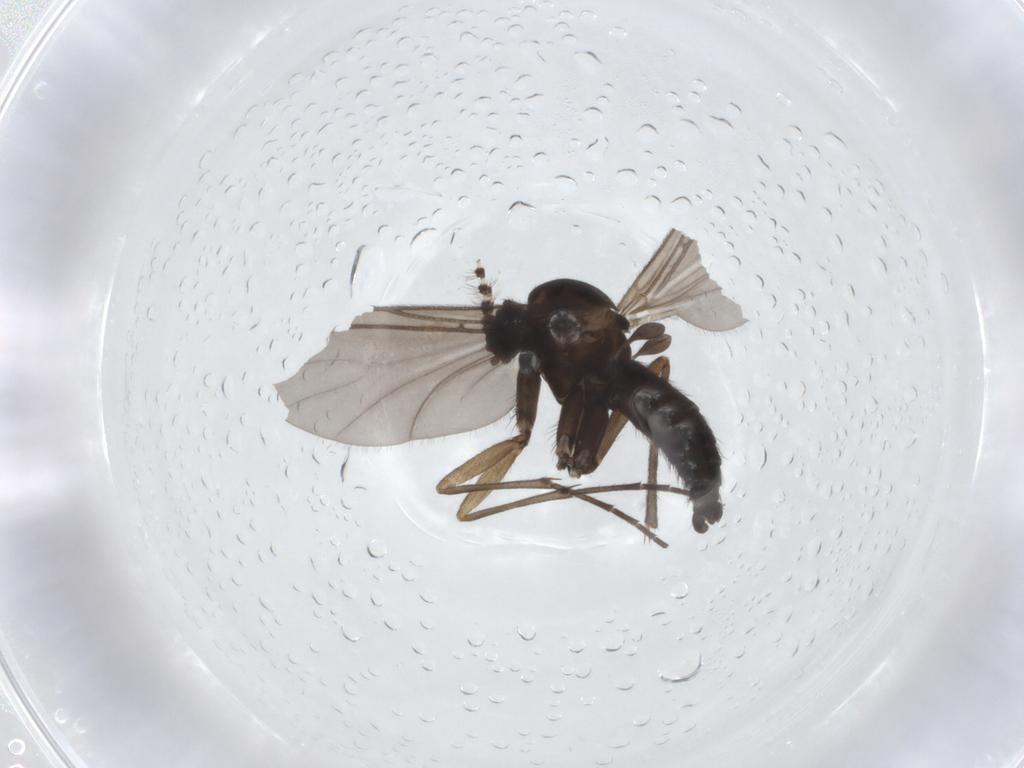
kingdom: Animalia
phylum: Arthropoda
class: Insecta
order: Diptera
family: Sciaridae
